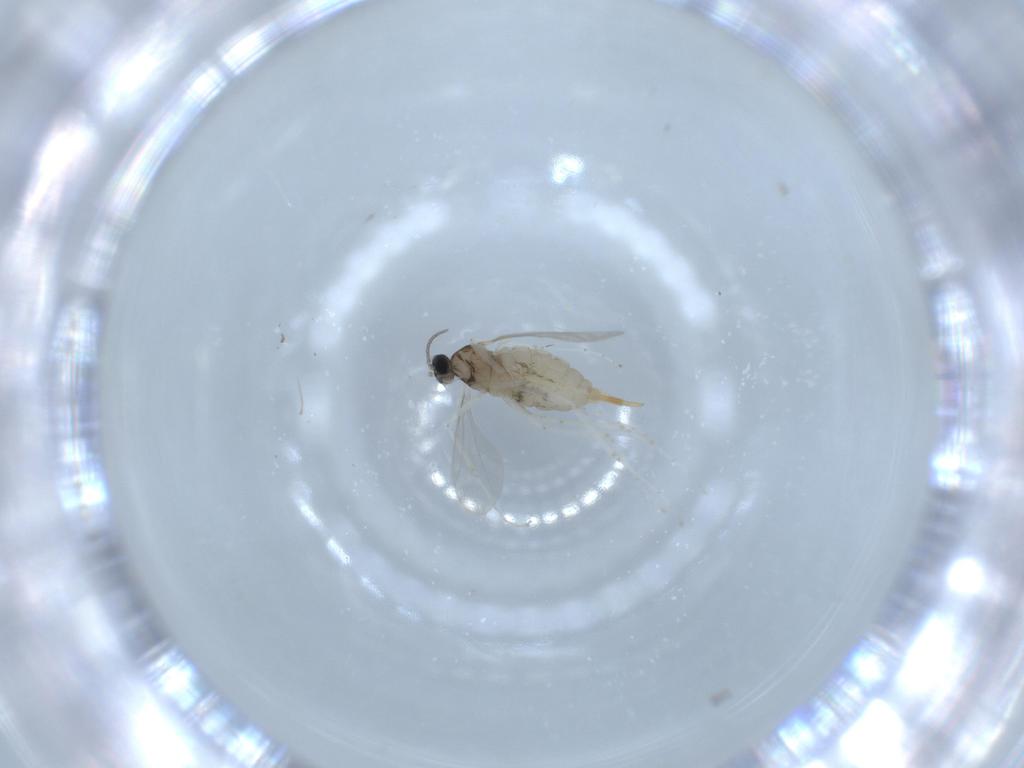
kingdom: Animalia
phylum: Arthropoda
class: Insecta
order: Diptera
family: Cecidomyiidae
